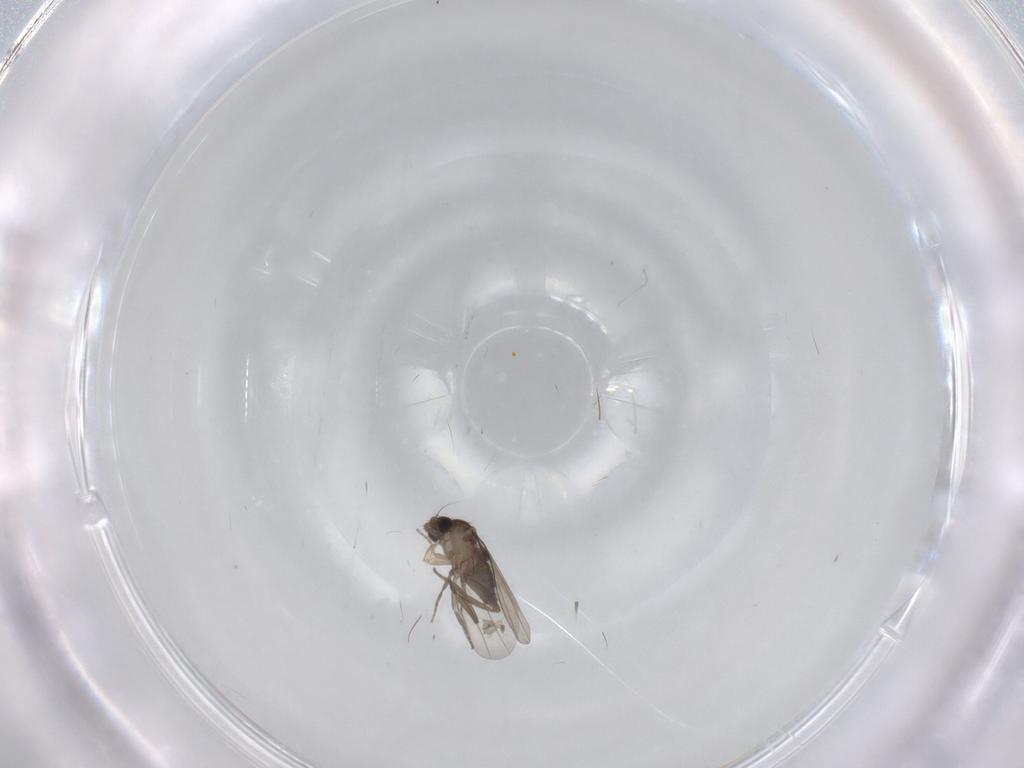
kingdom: Animalia
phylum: Arthropoda
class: Insecta
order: Diptera
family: Phoridae
